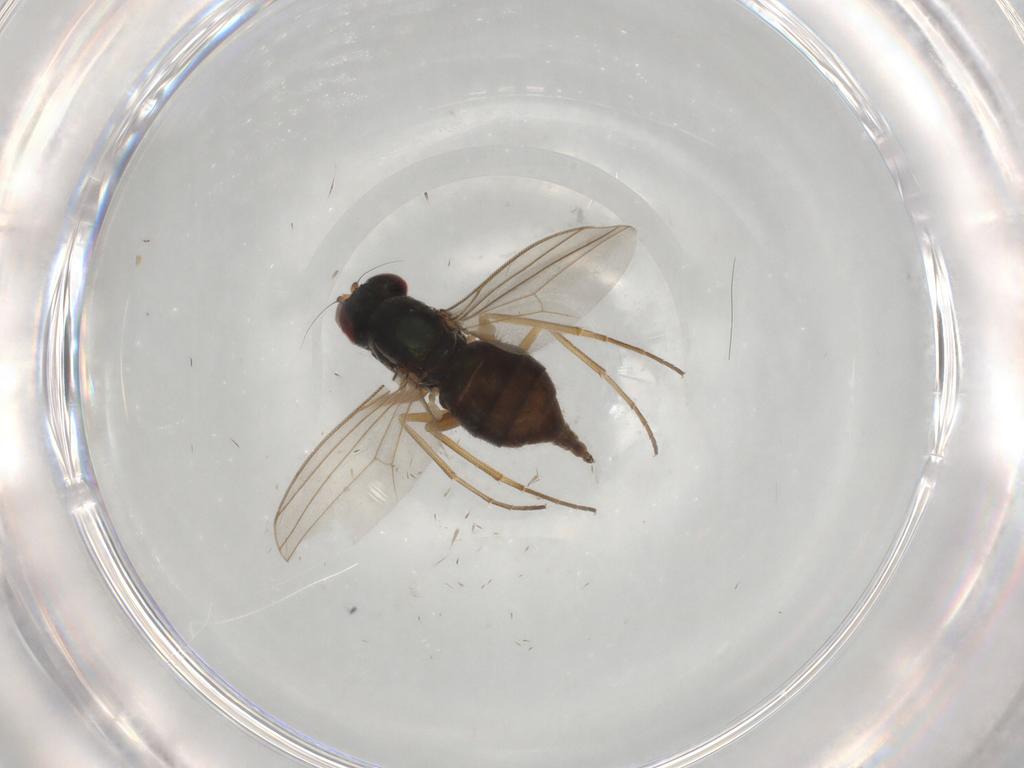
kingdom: Animalia
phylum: Arthropoda
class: Insecta
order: Diptera
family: Dolichopodidae
